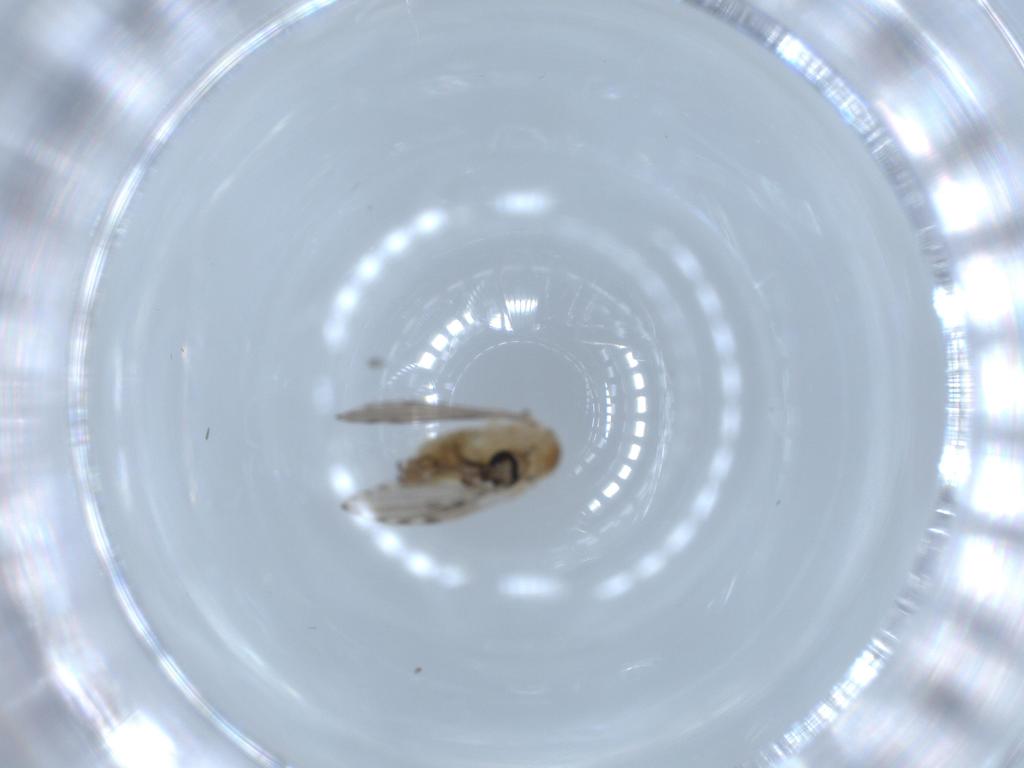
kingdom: Animalia
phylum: Arthropoda
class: Insecta
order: Diptera
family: Psychodidae
